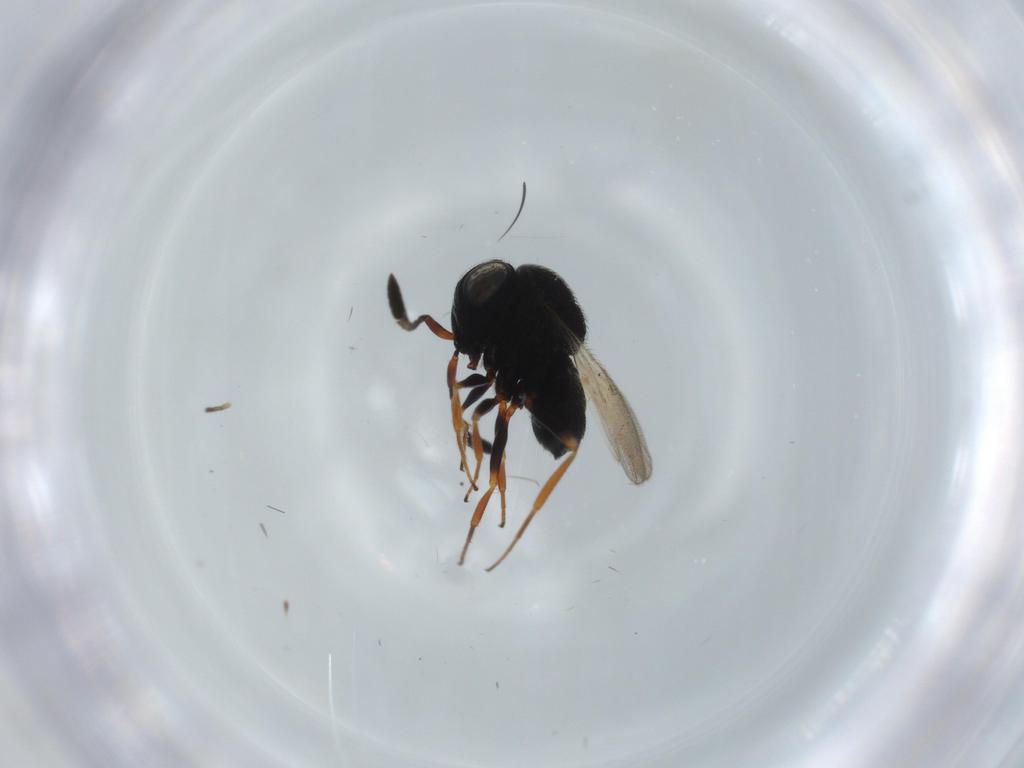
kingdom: Animalia
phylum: Arthropoda
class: Insecta
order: Hymenoptera
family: Scelionidae
